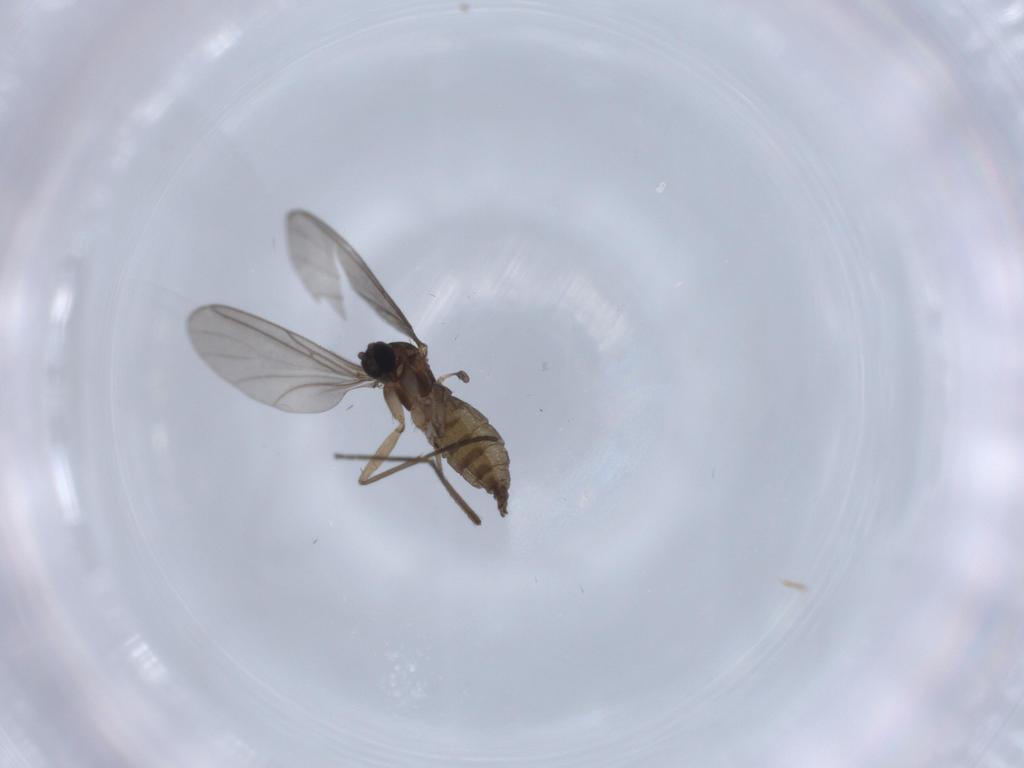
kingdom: Animalia
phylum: Arthropoda
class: Insecta
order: Diptera
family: Sciaridae
